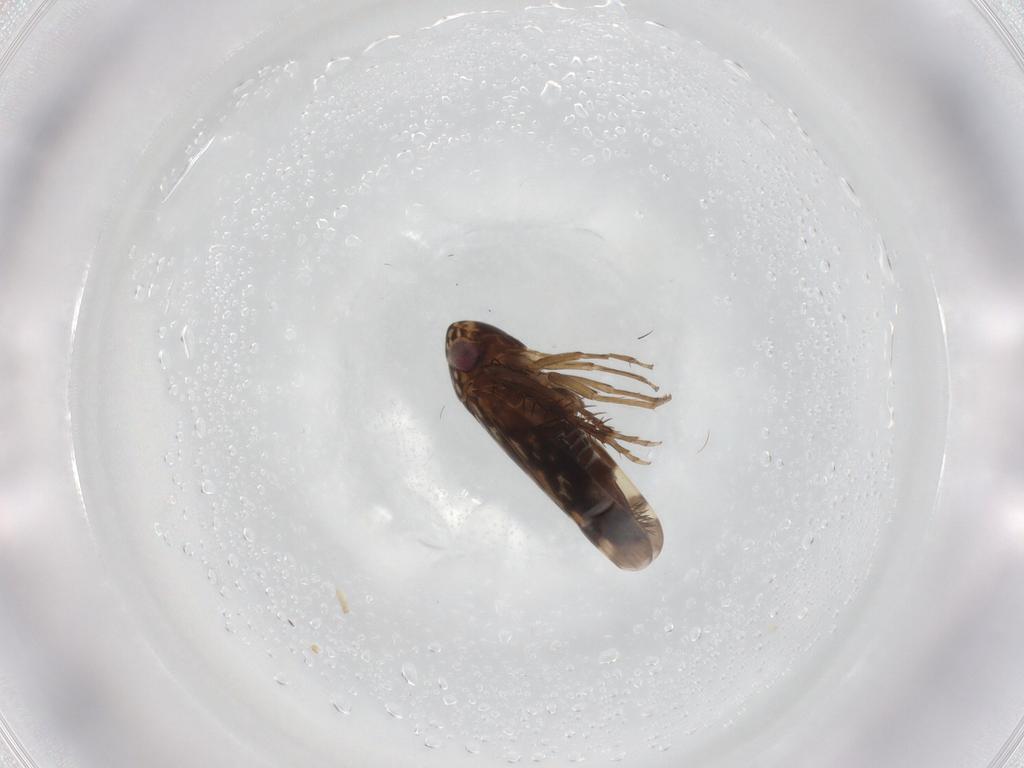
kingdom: Animalia
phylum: Arthropoda
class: Insecta
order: Hemiptera
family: Cicadellidae
